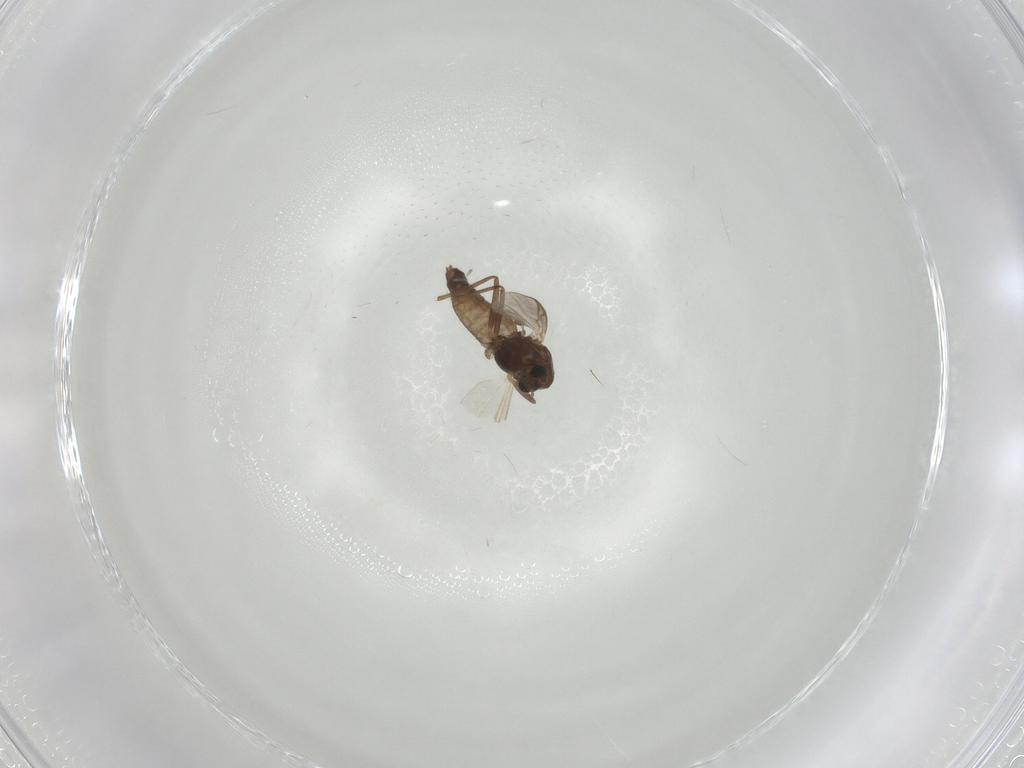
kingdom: Animalia
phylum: Arthropoda
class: Insecta
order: Diptera
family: Chironomidae
